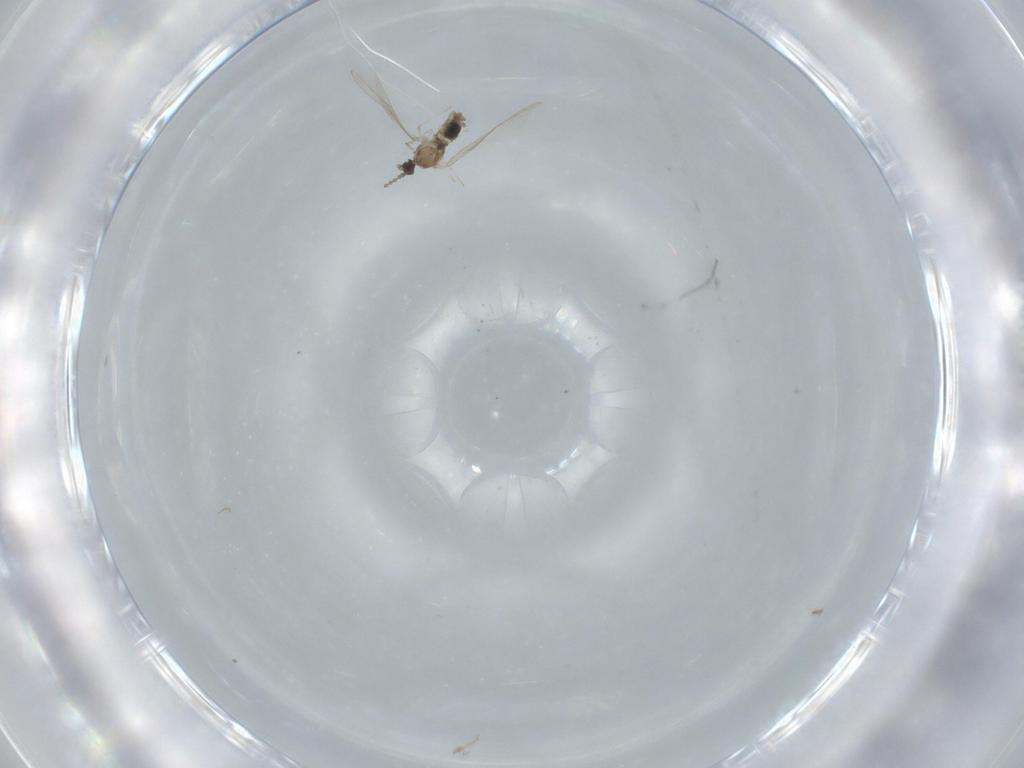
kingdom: Animalia
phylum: Arthropoda
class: Insecta
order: Diptera
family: Cecidomyiidae
